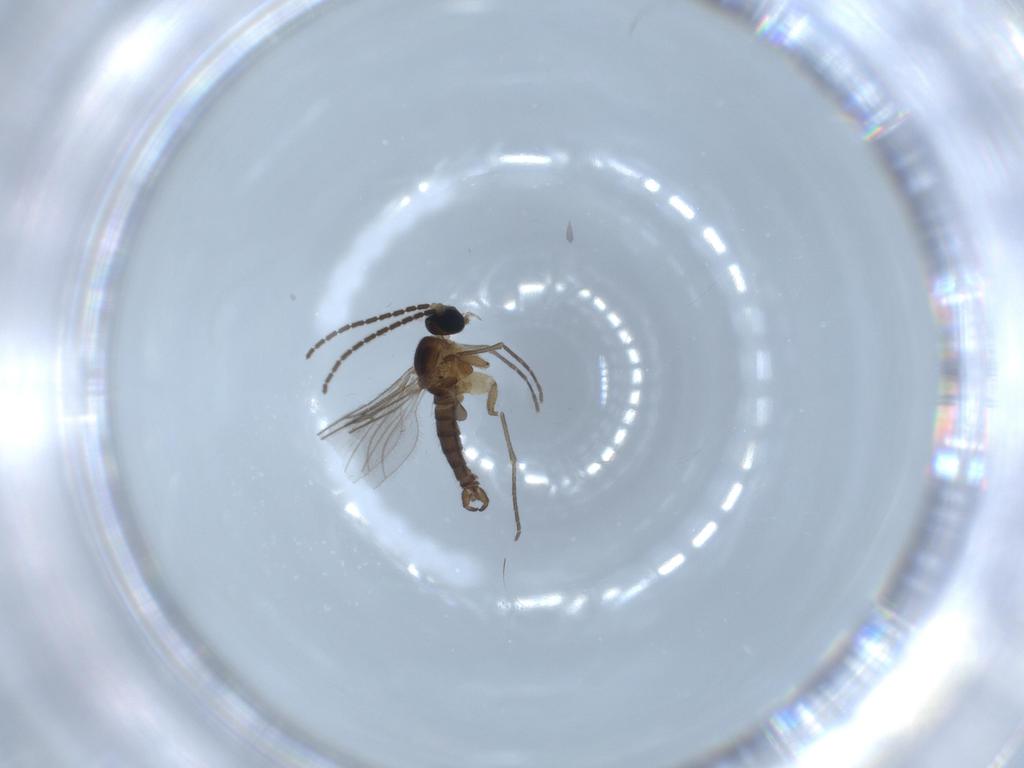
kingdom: Animalia
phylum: Arthropoda
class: Insecta
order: Diptera
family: Sciaridae
